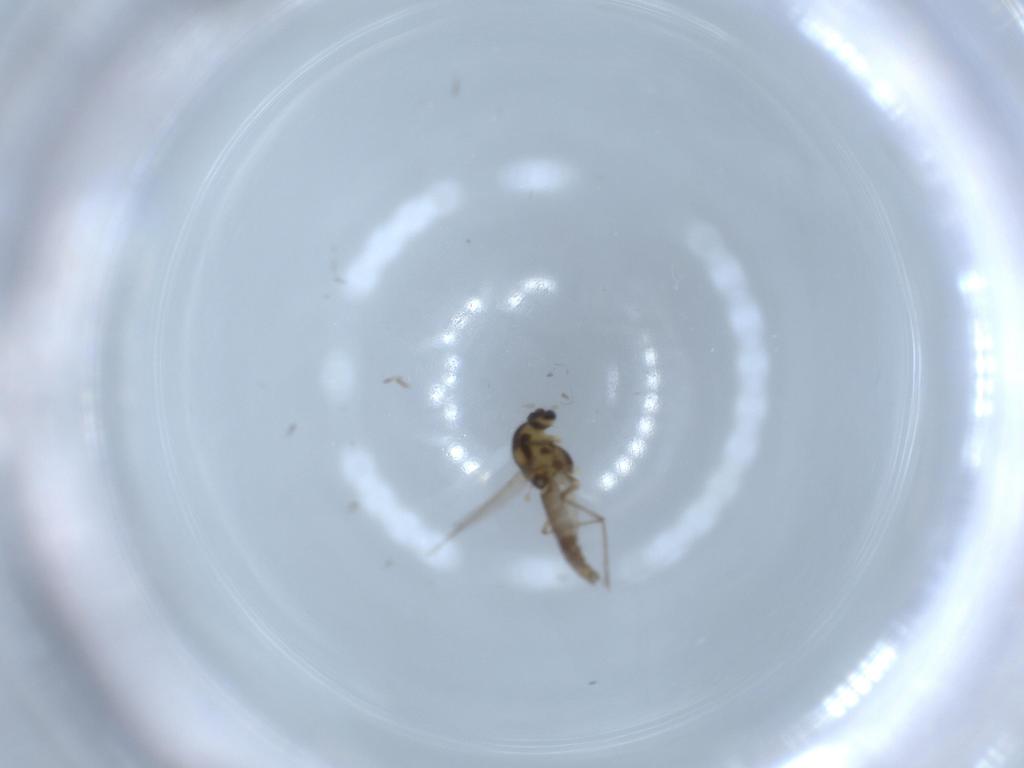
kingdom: Animalia
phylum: Arthropoda
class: Insecta
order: Diptera
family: Chironomidae
